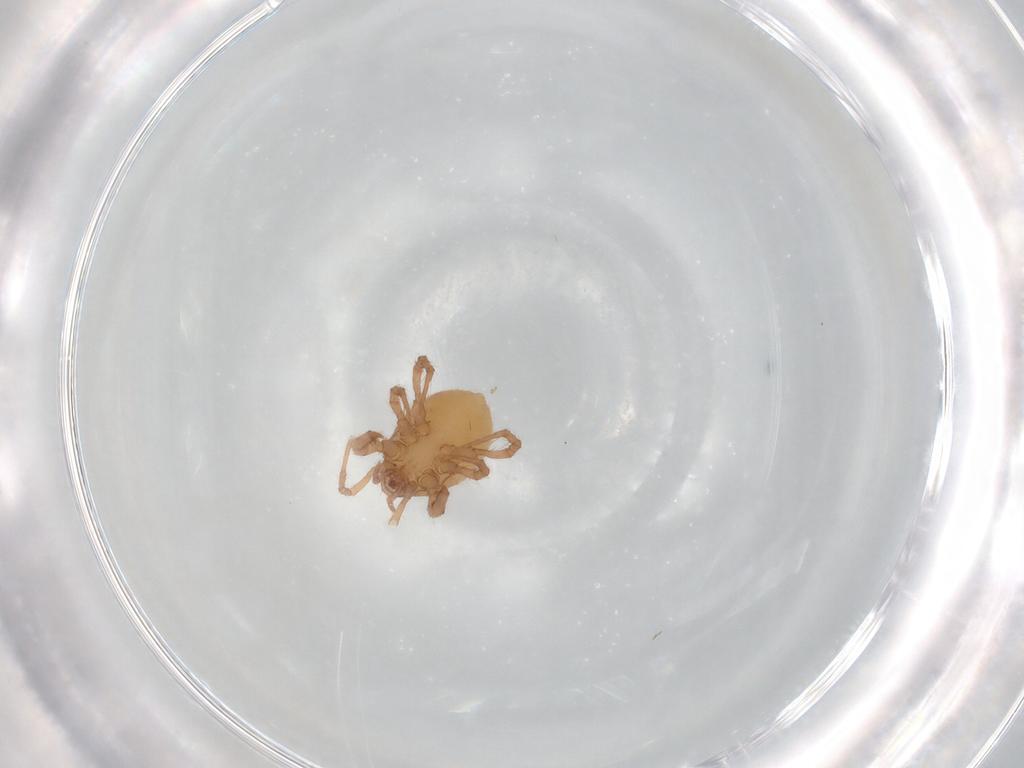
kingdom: Animalia
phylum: Arthropoda
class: Arachnida
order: Mesostigmata
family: Parasitidae
